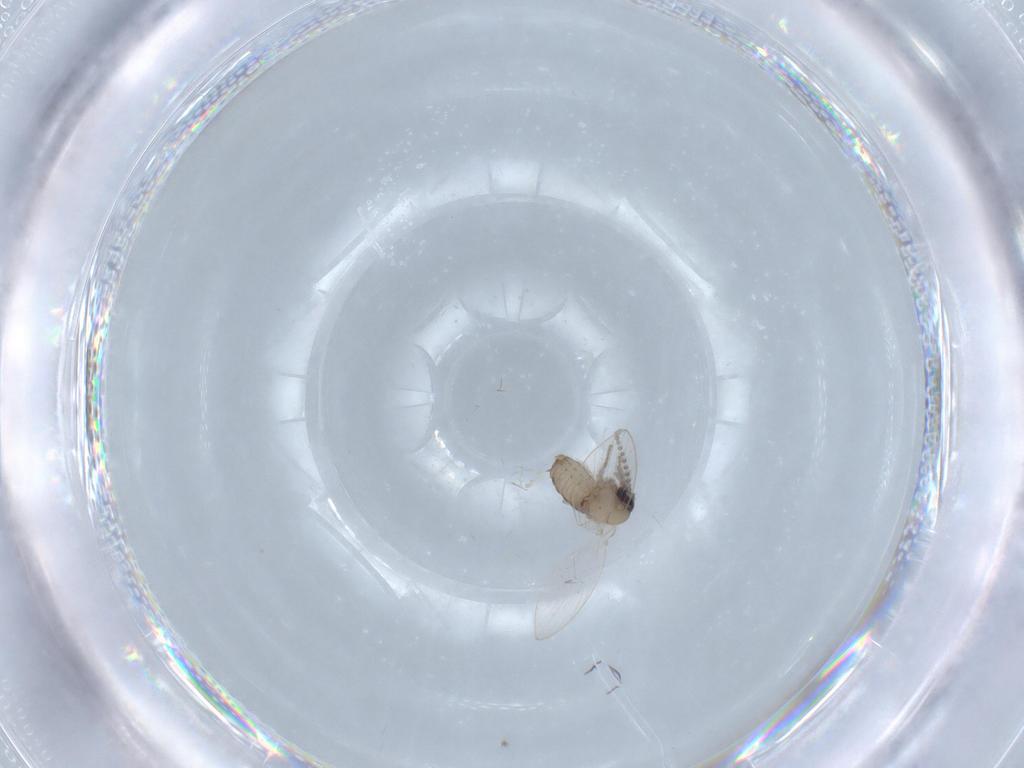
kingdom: Animalia
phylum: Arthropoda
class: Insecta
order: Diptera
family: Psychodidae
